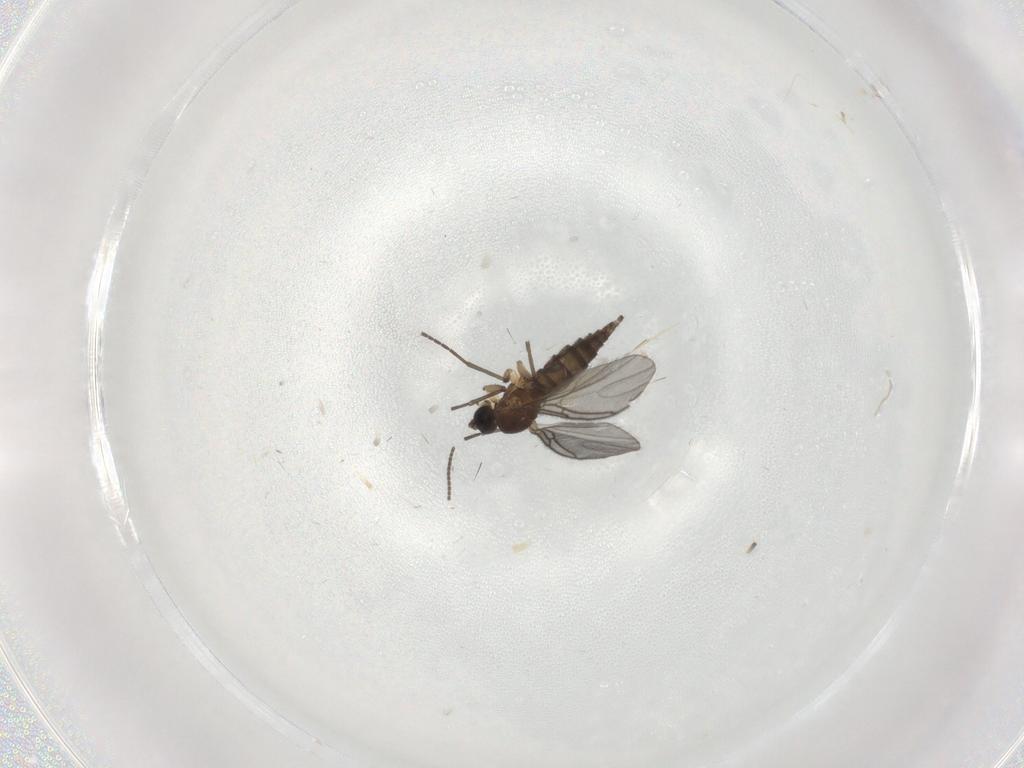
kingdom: Animalia
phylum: Arthropoda
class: Insecta
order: Diptera
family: Sciaridae
